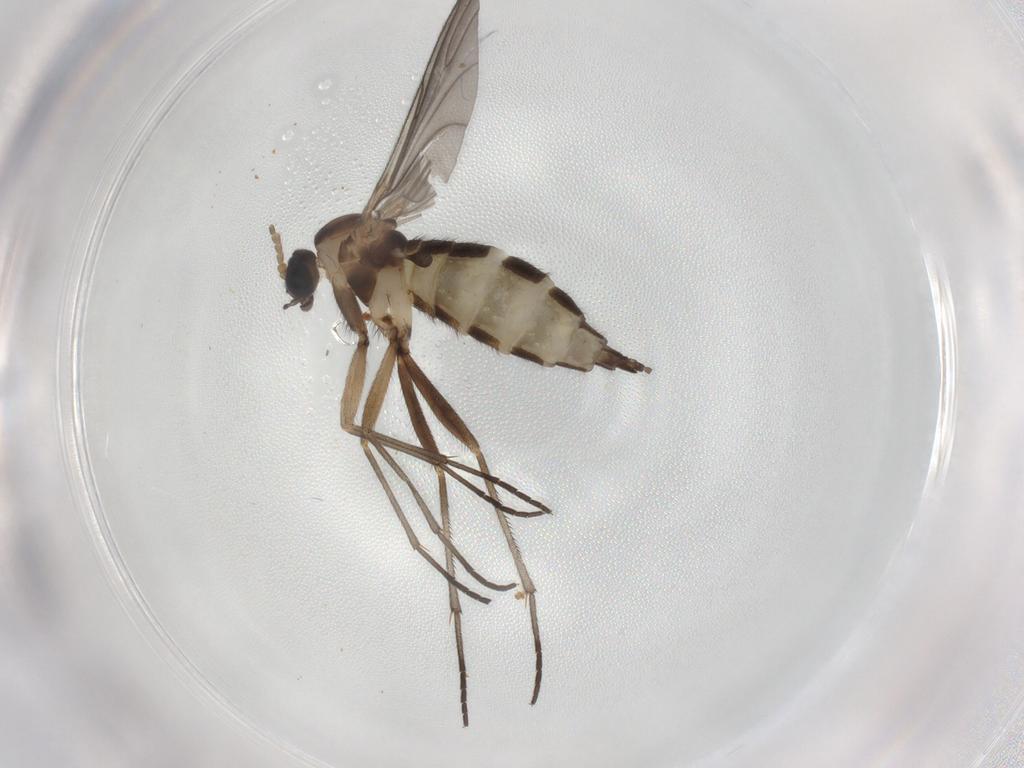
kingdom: Animalia
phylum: Arthropoda
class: Insecta
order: Diptera
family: Sciaridae
